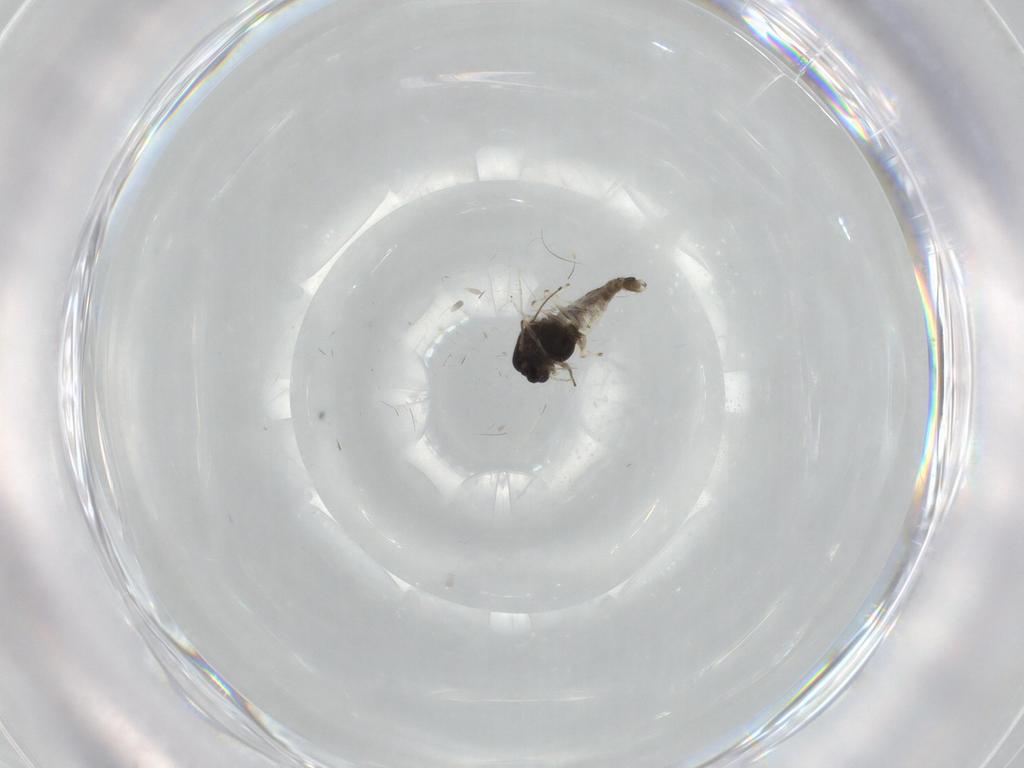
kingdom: Animalia
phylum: Arthropoda
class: Insecta
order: Diptera
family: Chironomidae
